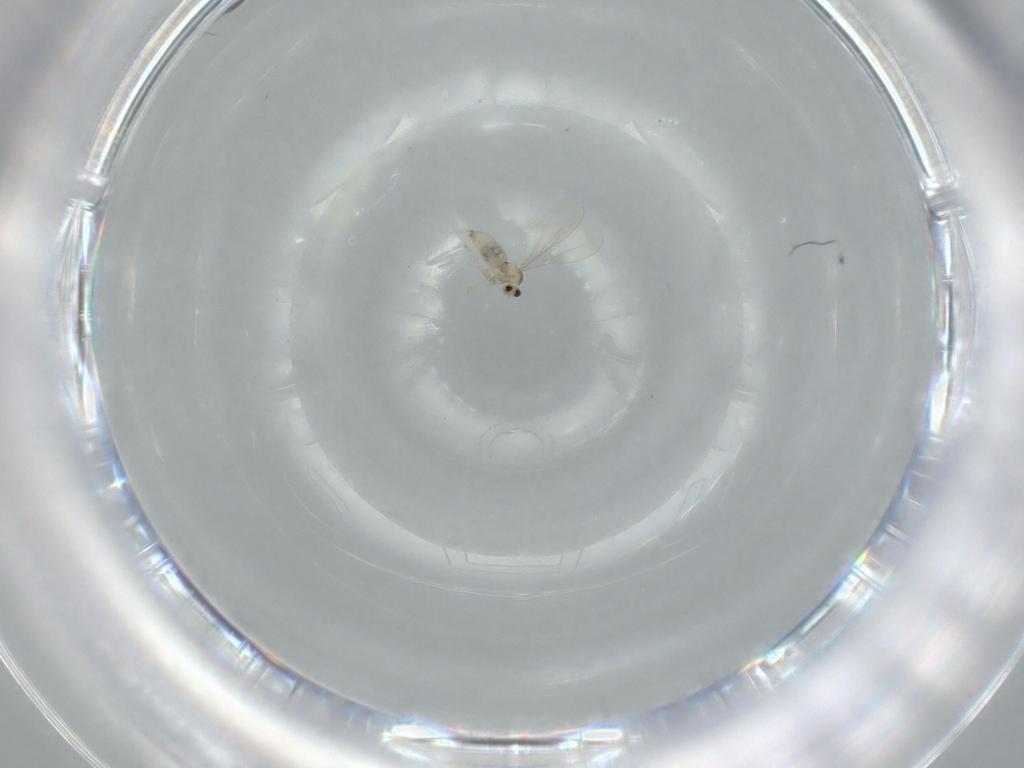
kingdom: Animalia
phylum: Arthropoda
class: Insecta
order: Diptera
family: Cecidomyiidae
